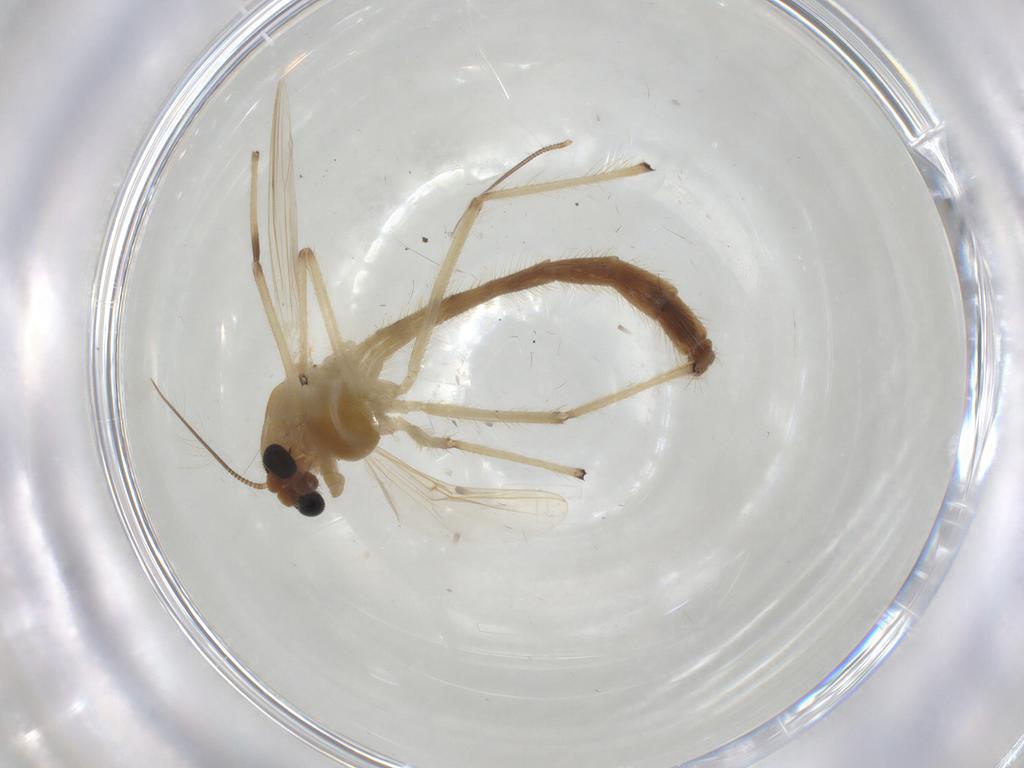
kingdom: Animalia
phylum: Arthropoda
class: Insecta
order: Diptera
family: Chironomidae
